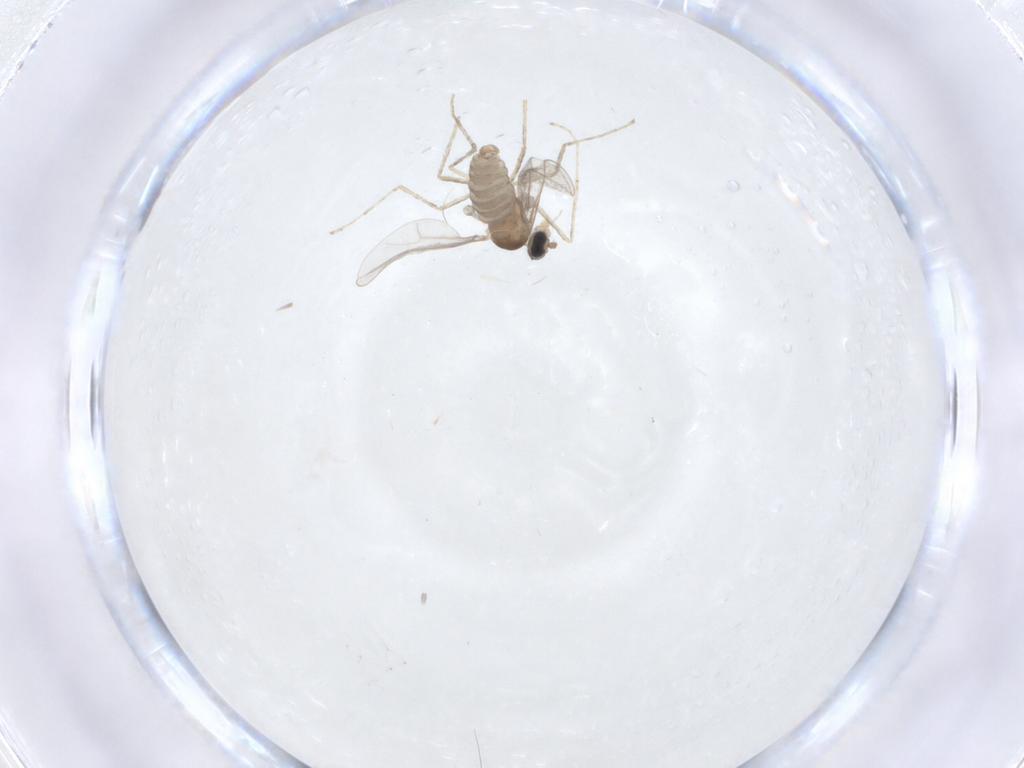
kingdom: Animalia
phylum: Arthropoda
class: Insecta
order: Diptera
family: Cecidomyiidae
